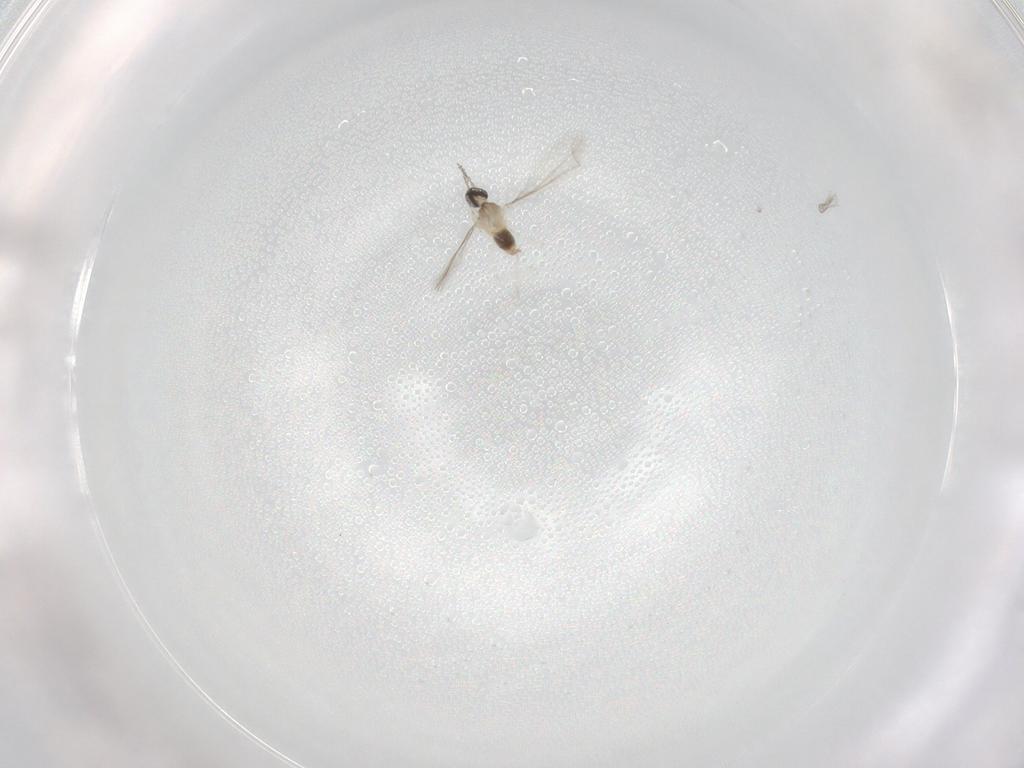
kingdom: Animalia
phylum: Arthropoda
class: Insecta
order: Diptera
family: Cecidomyiidae
